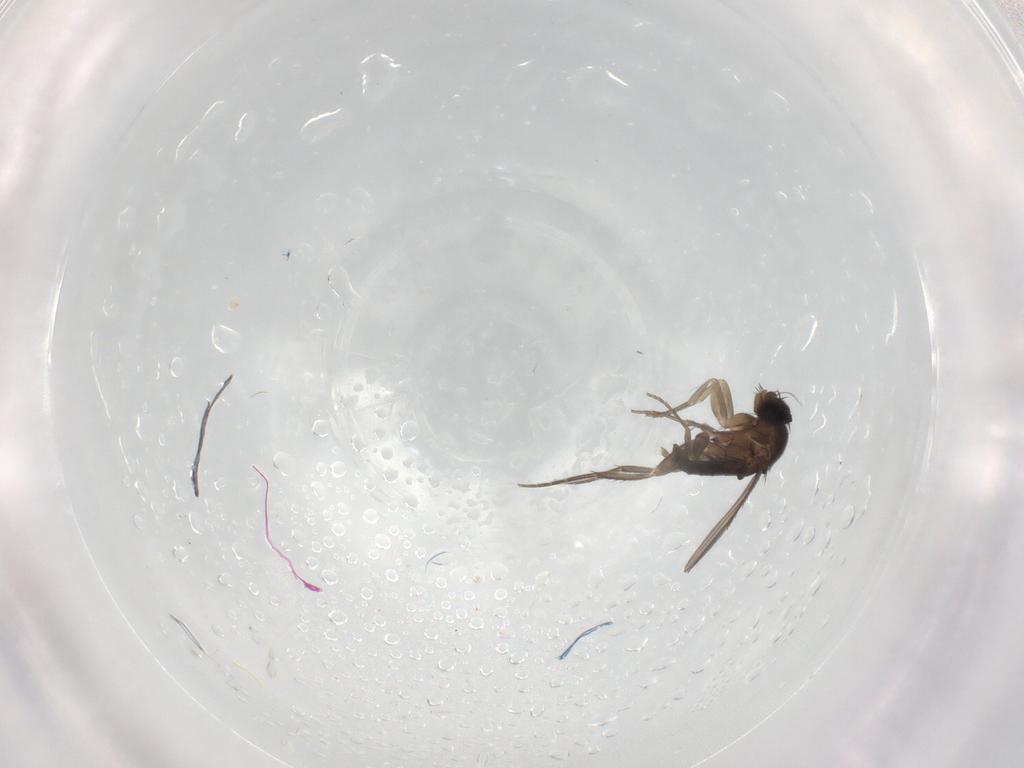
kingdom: Animalia
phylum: Arthropoda
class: Insecta
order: Diptera
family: Phoridae
